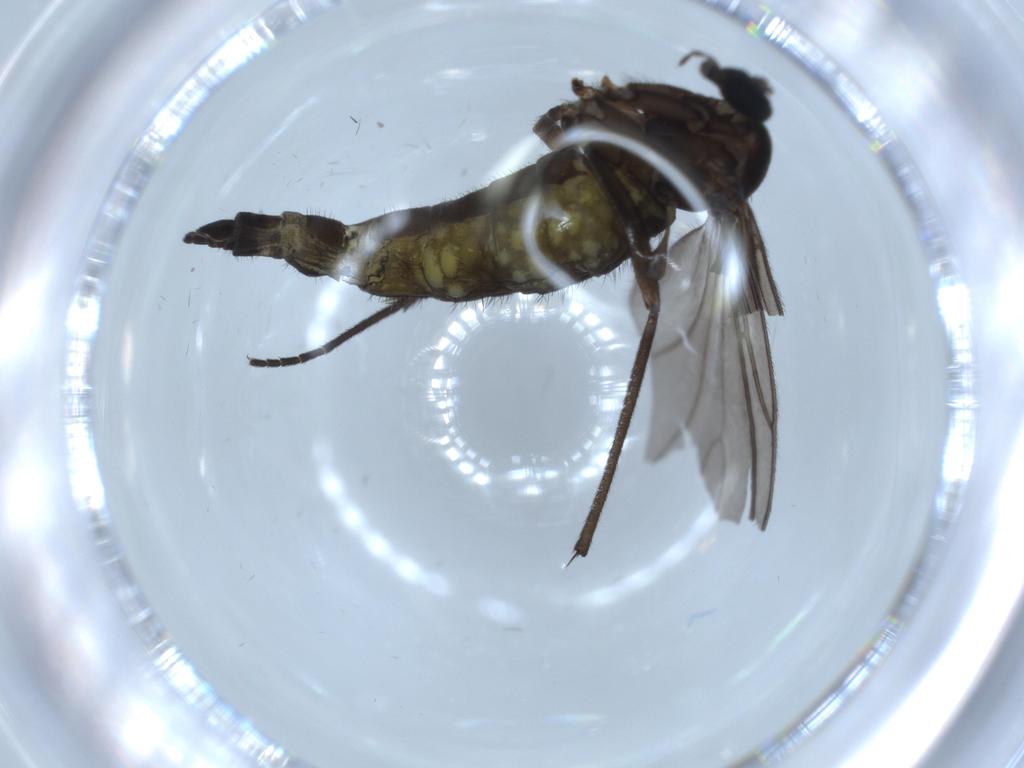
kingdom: Animalia
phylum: Arthropoda
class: Insecta
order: Diptera
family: Sciaridae
